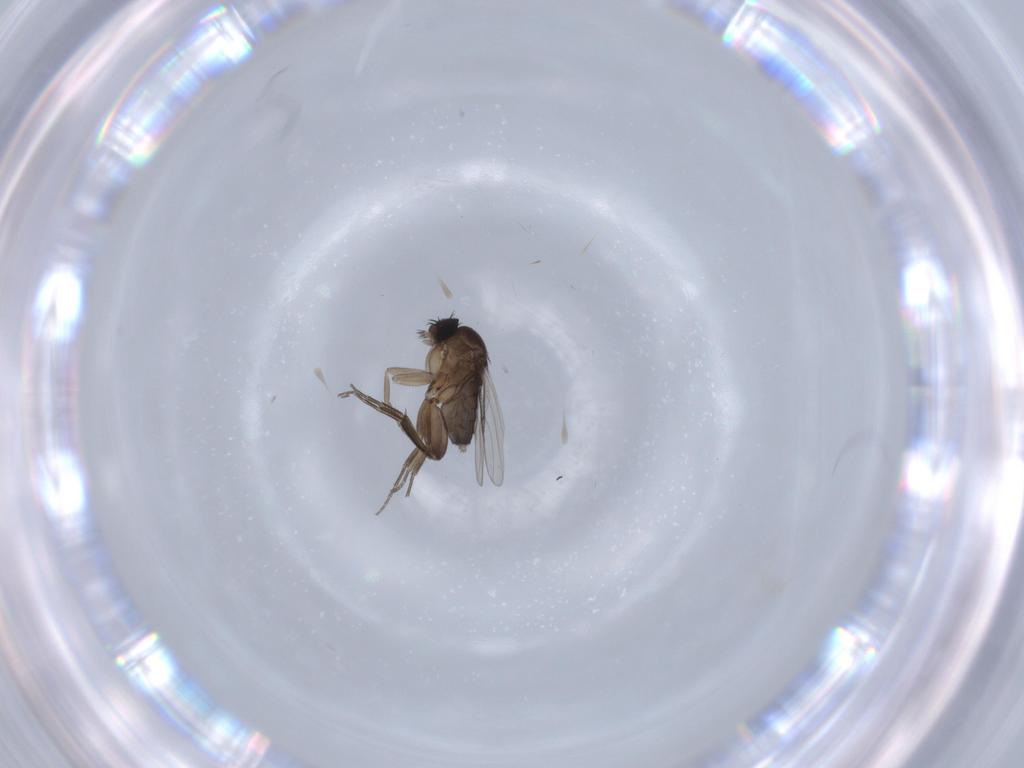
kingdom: Animalia
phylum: Arthropoda
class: Insecta
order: Diptera
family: Phoridae
